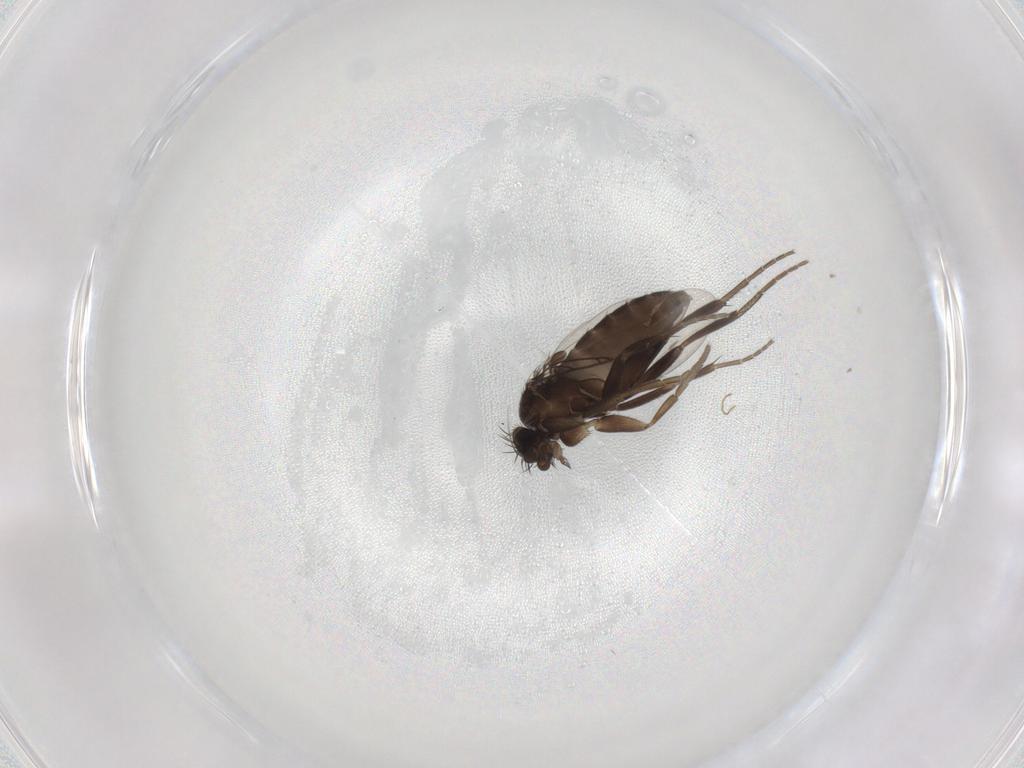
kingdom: Animalia
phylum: Arthropoda
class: Insecta
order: Diptera
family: Phoridae
